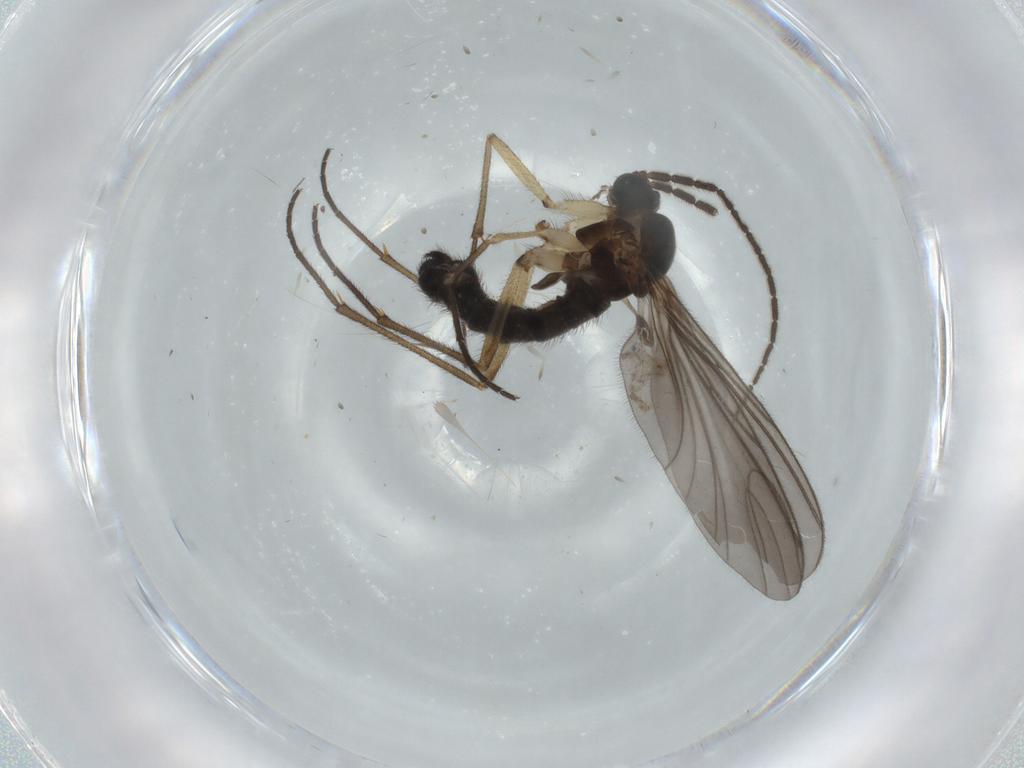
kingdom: Animalia
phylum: Arthropoda
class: Insecta
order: Diptera
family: Sciaridae
